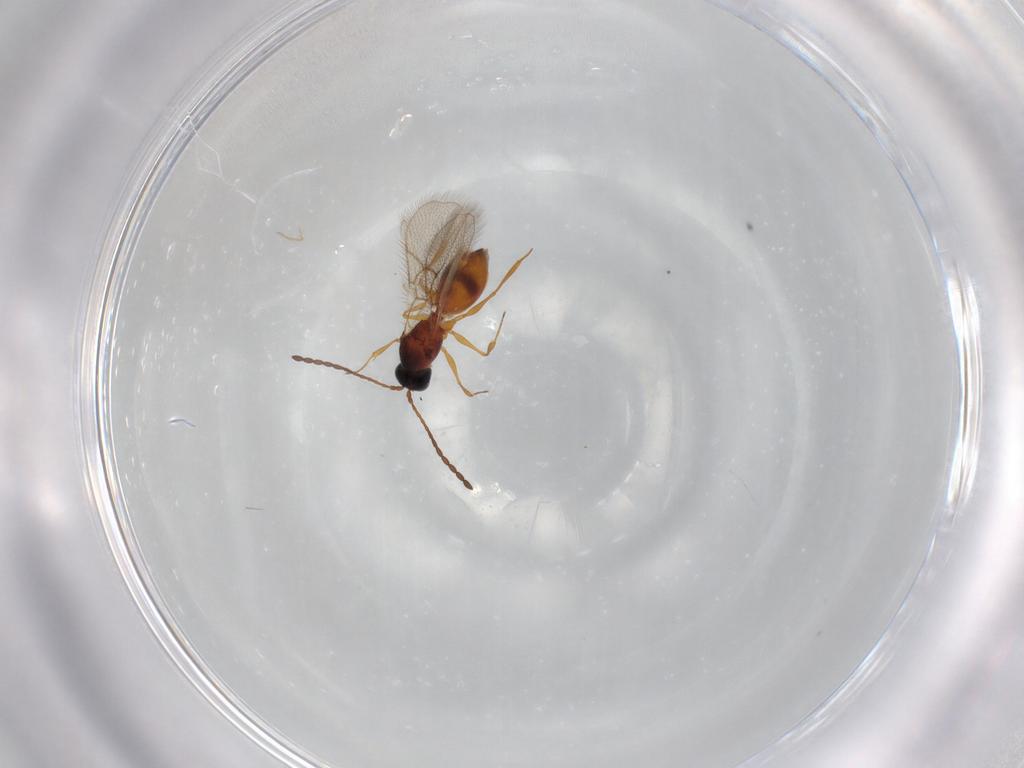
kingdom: Animalia
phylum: Arthropoda
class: Insecta
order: Hymenoptera
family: Figitidae
